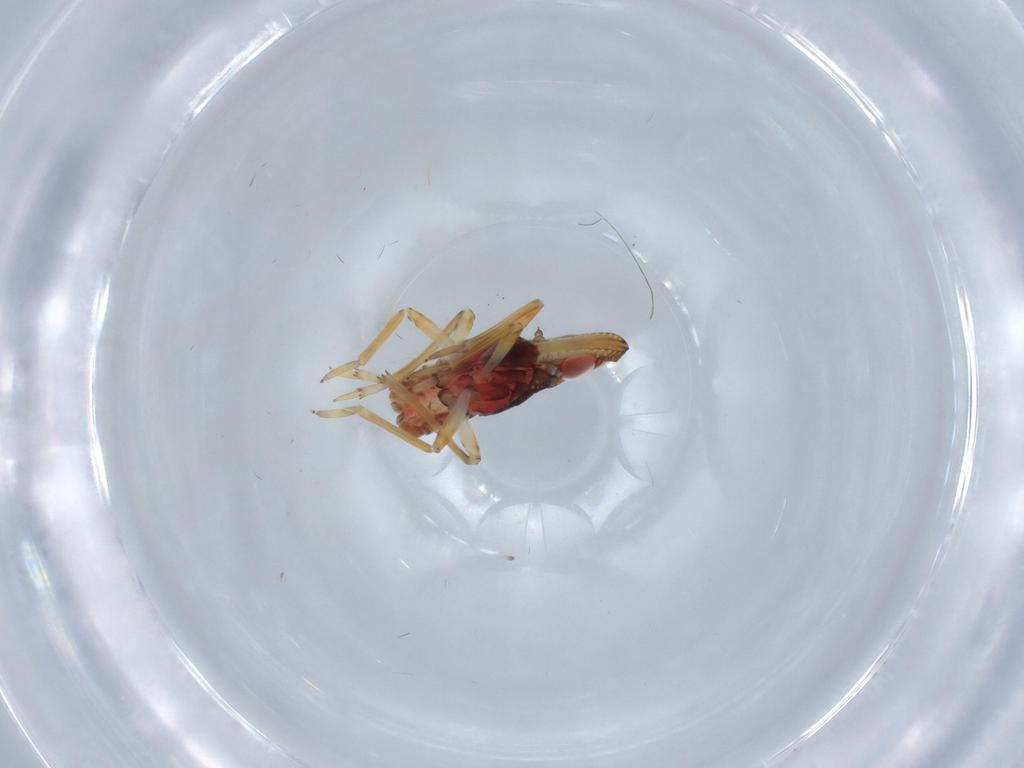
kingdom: Animalia
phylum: Arthropoda
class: Insecta
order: Hemiptera
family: Fulgoroidea_incertae_sedis
